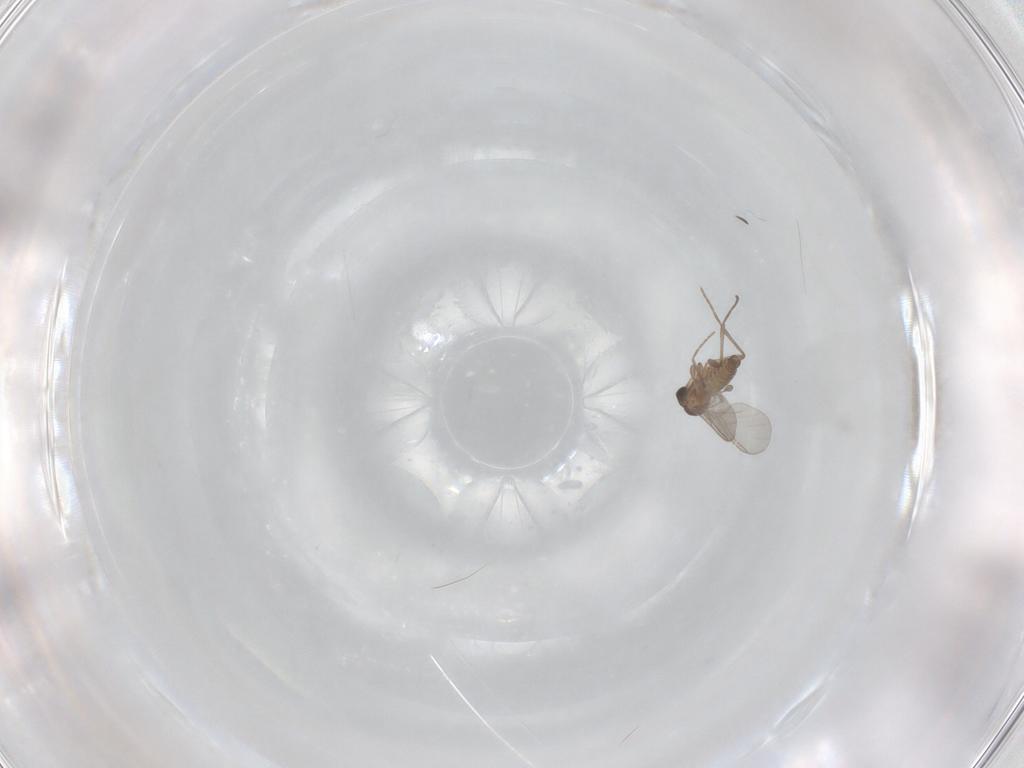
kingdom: Animalia
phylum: Arthropoda
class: Insecta
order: Diptera
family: Sciaridae
